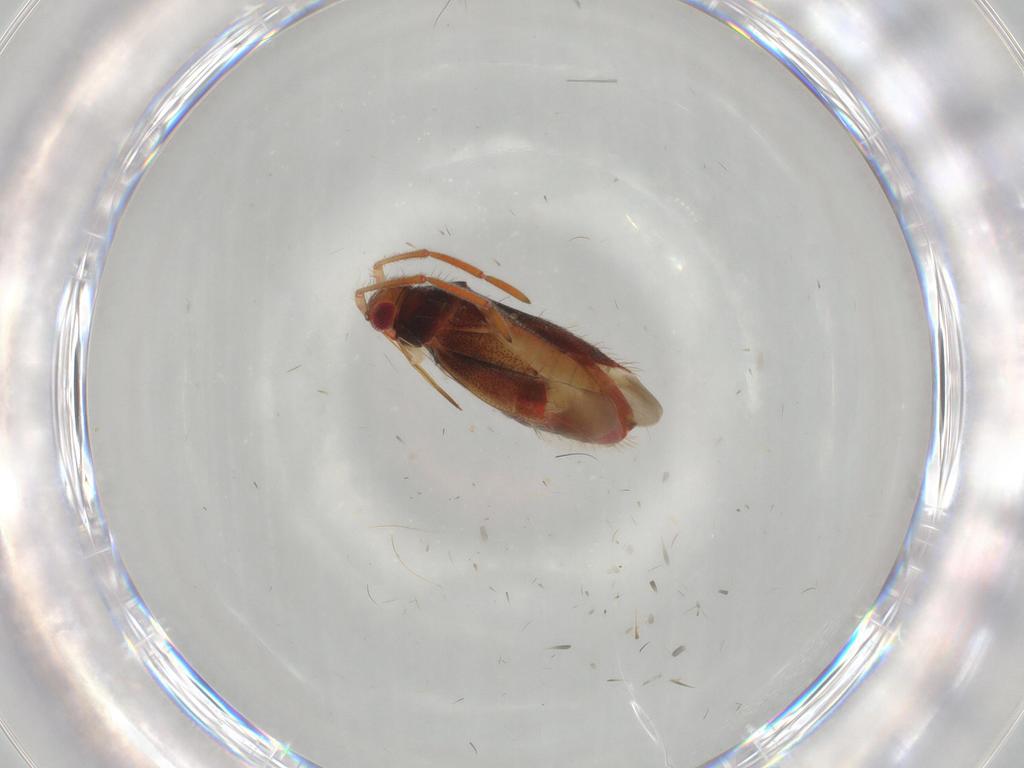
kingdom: Animalia
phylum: Arthropoda
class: Insecta
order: Hemiptera
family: Miridae
